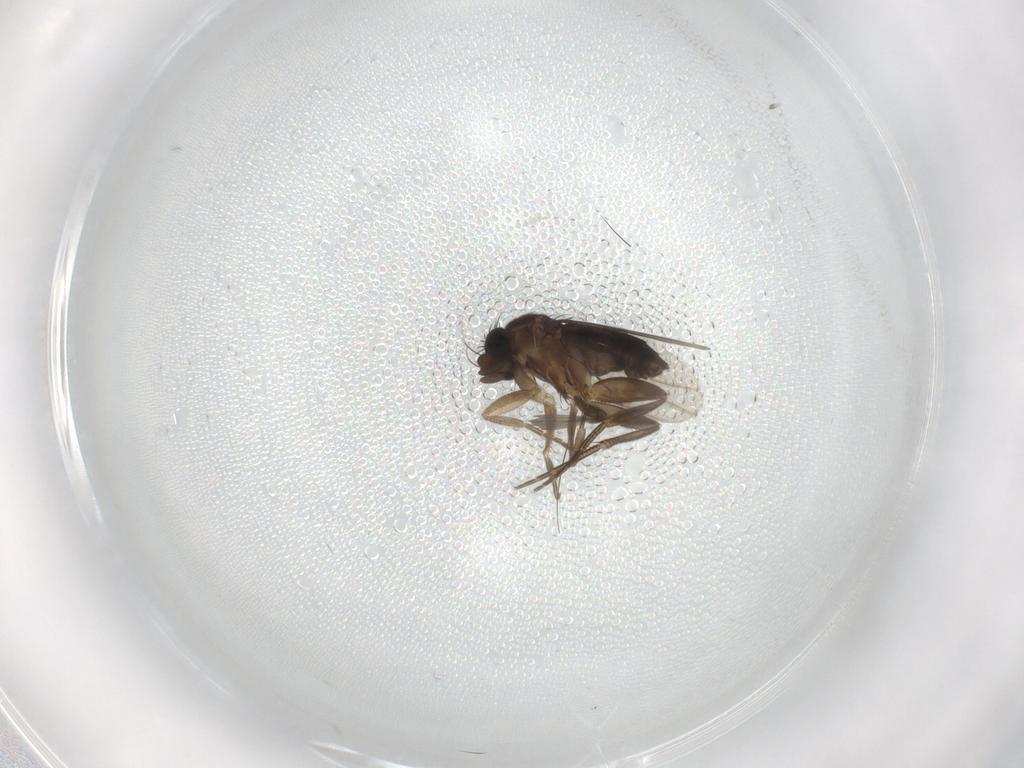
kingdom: Animalia
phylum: Arthropoda
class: Insecta
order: Diptera
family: Phoridae
